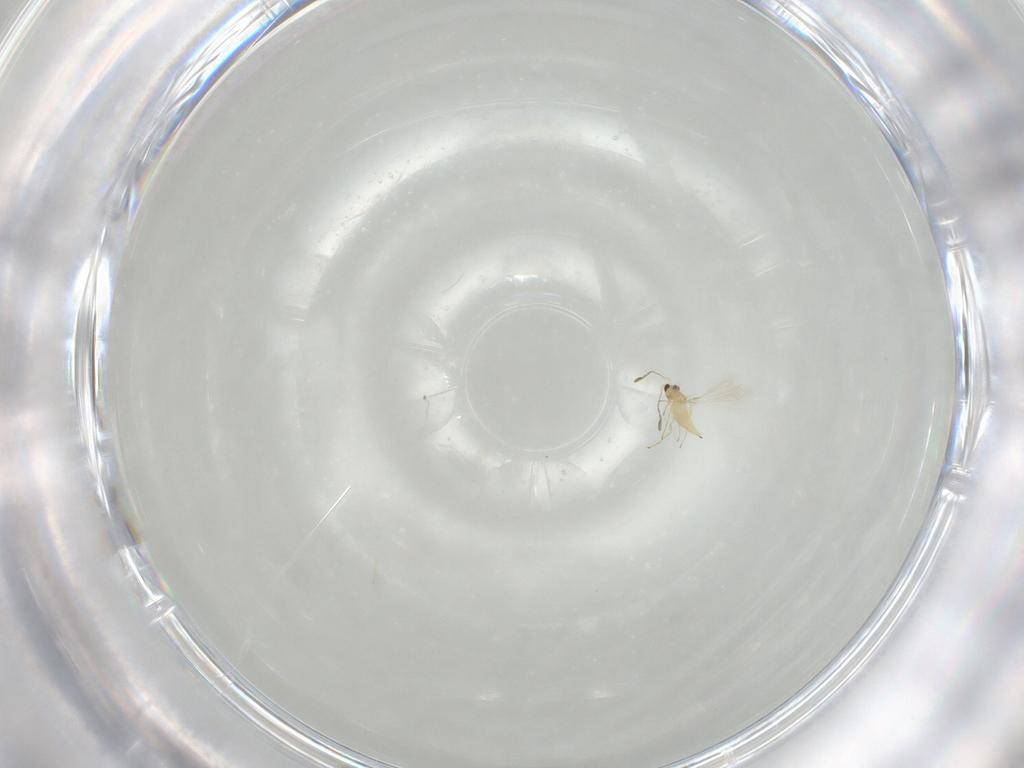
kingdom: Animalia
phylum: Arthropoda
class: Insecta
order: Hymenoptera
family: Mymaridae
